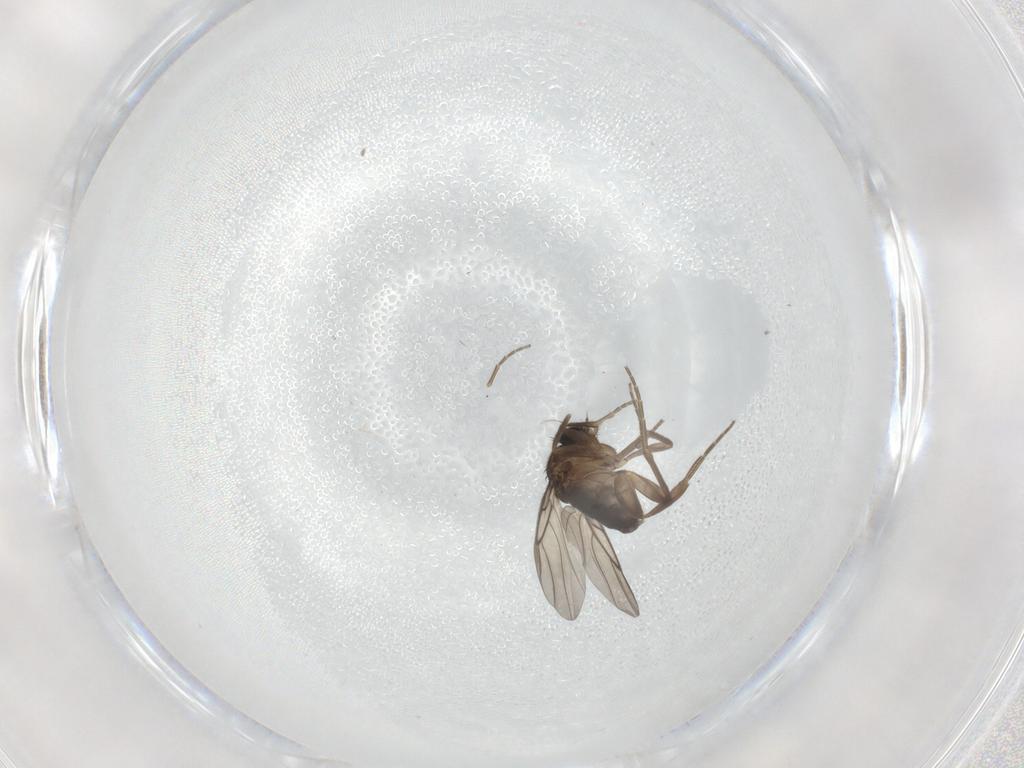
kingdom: Animalia
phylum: Arthropoda
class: Insecta
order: Diptera
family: Phoridae
